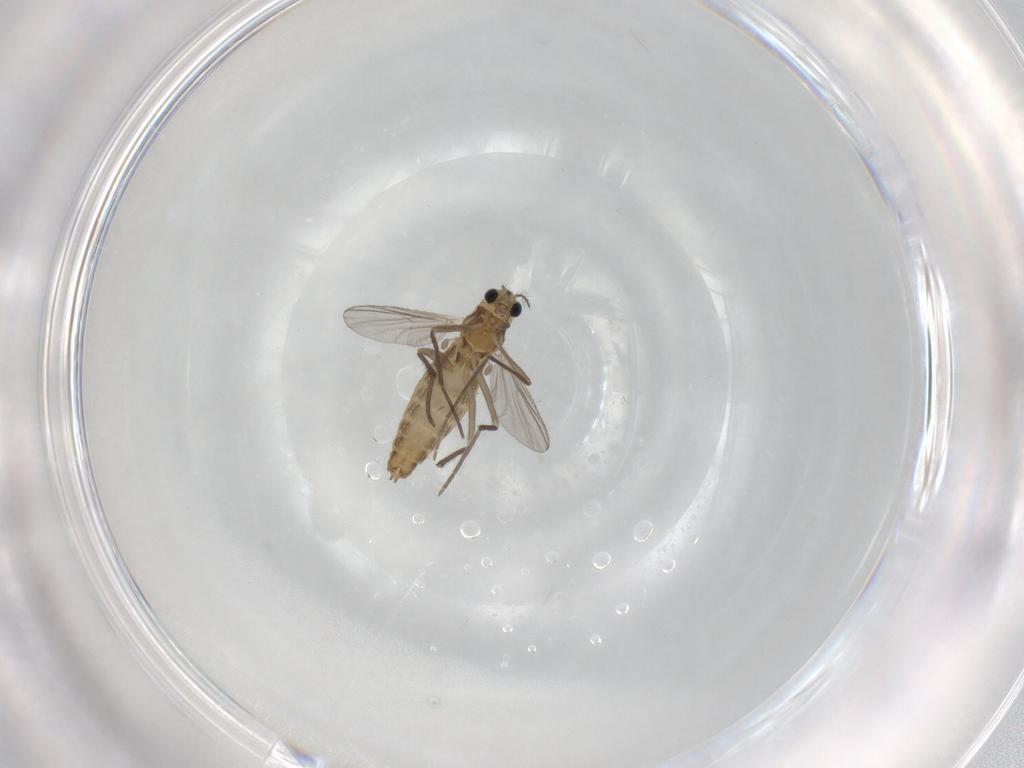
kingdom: Animalia
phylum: Arthropoda
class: Insecta
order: Diptera
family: Chironomidae
